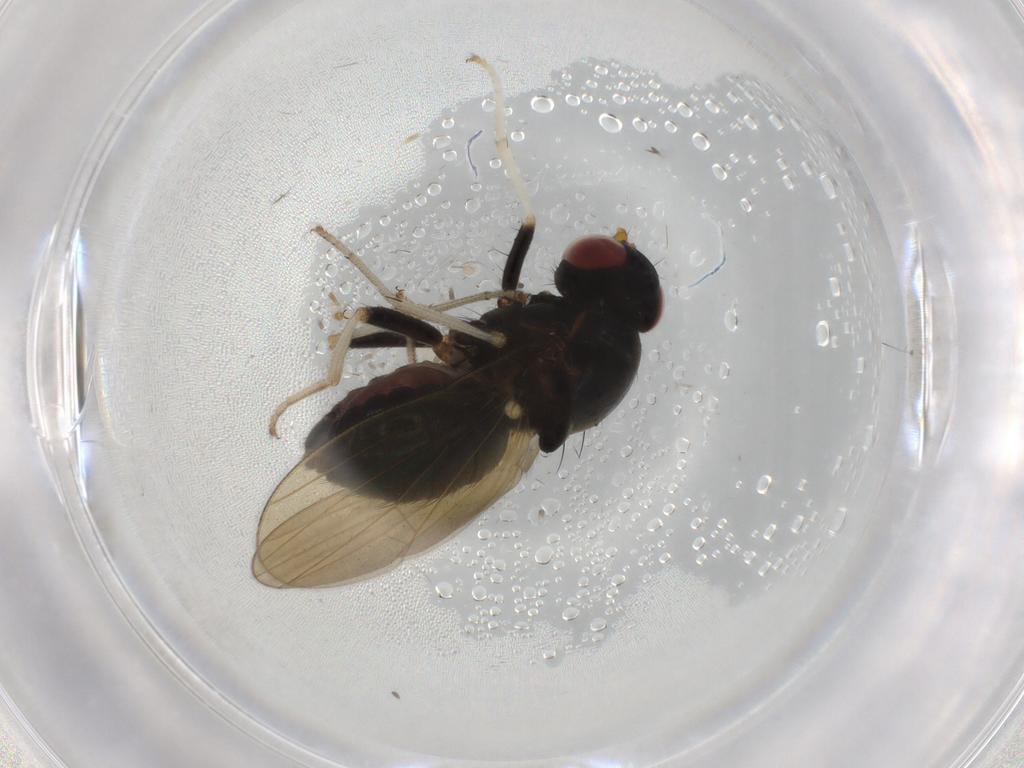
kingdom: Animalia
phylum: Arthropoda
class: Insecta
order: Diptera
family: Lauxaniidae
